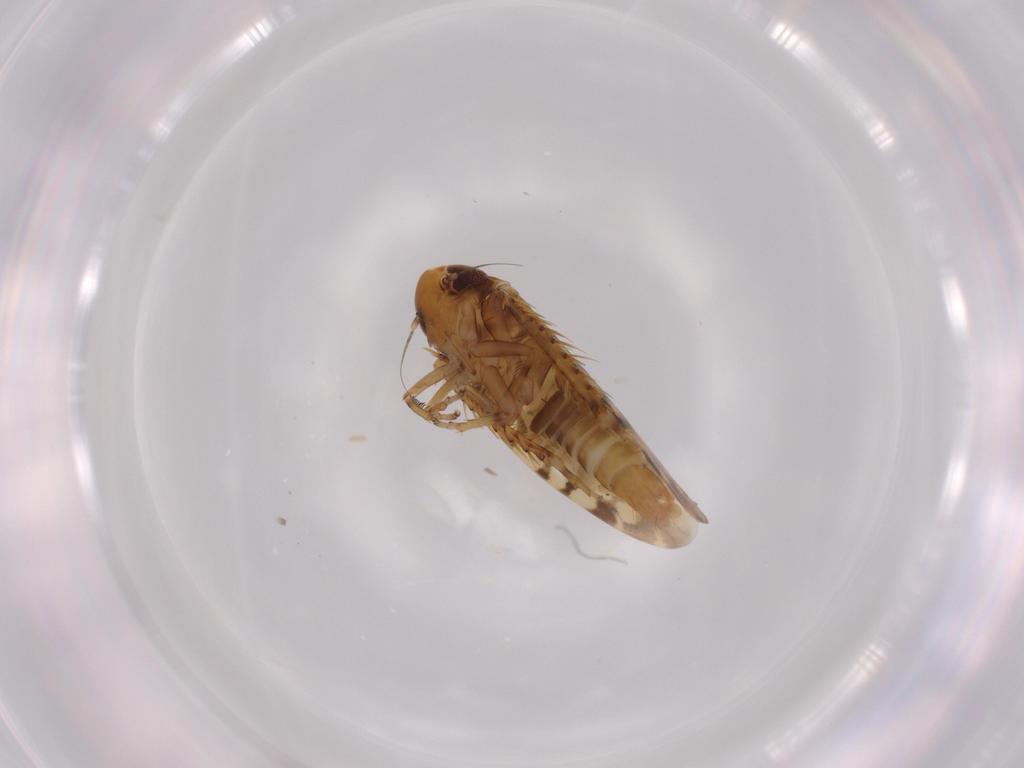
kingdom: Animalia
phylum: Arthropoda
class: Insecta
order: Hemiptera
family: Cicadellidae
